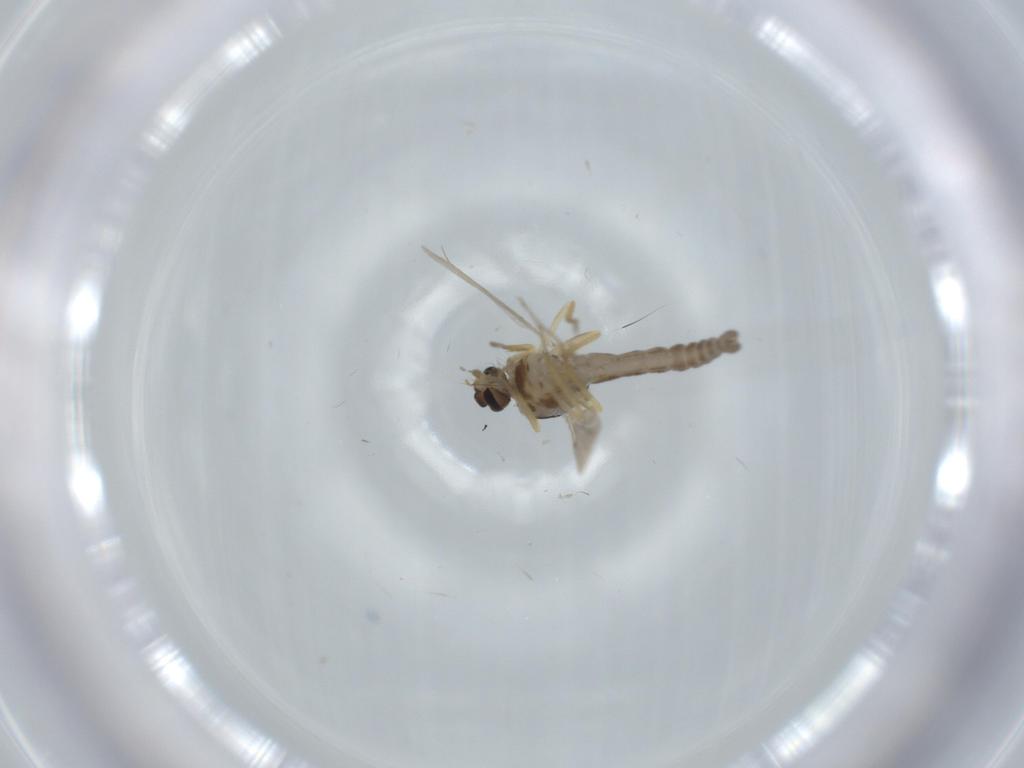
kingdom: Animalia
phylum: Arthropoda
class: Insecta
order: Diptera
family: Ceratopogonidae
